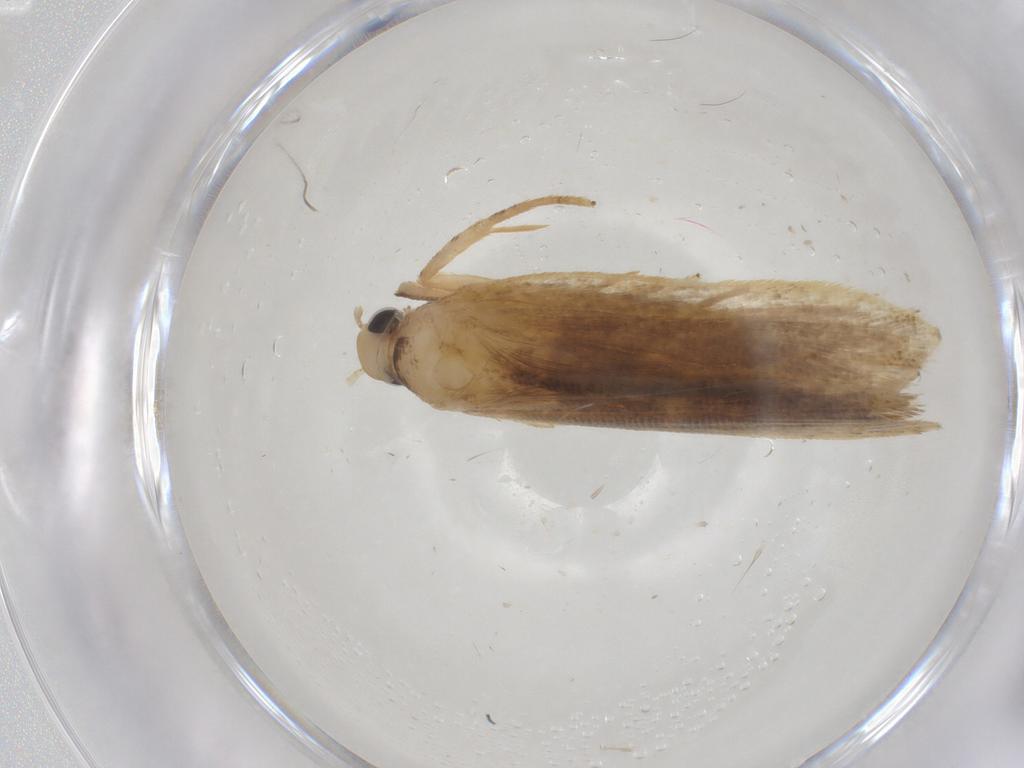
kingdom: Animalia
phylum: Arthropoda
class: Insecta
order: Lepidoptera
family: Gelechiidae
